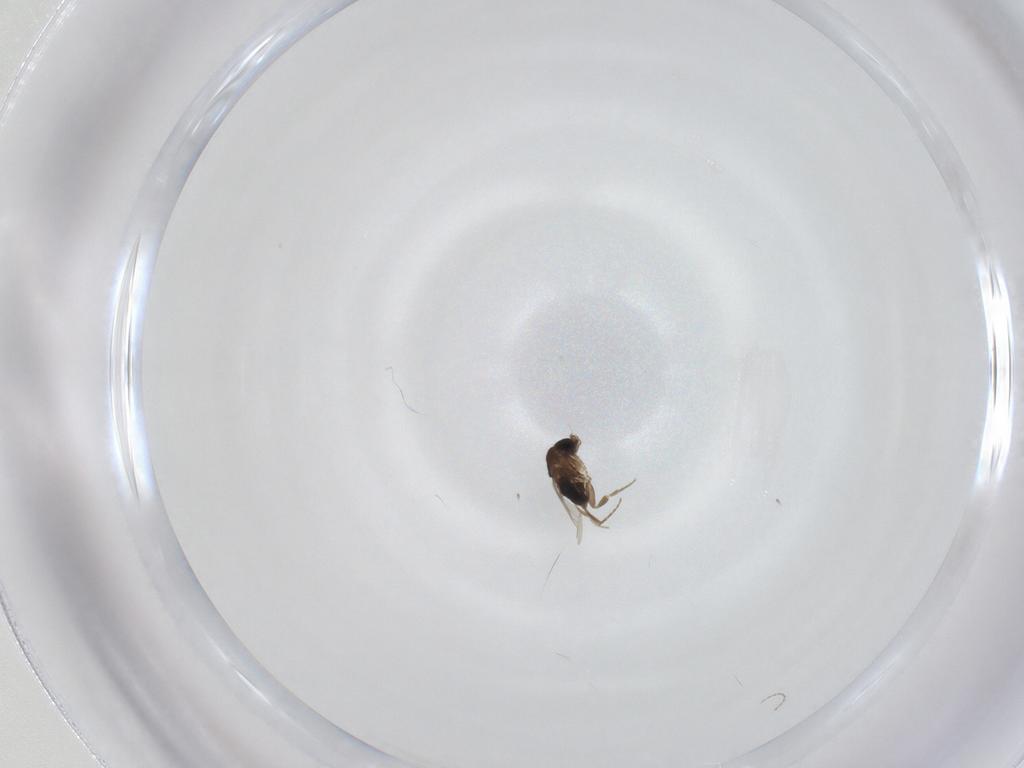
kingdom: Animalia
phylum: Arthropoda
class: Insecta
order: Diptera
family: Phoridae
